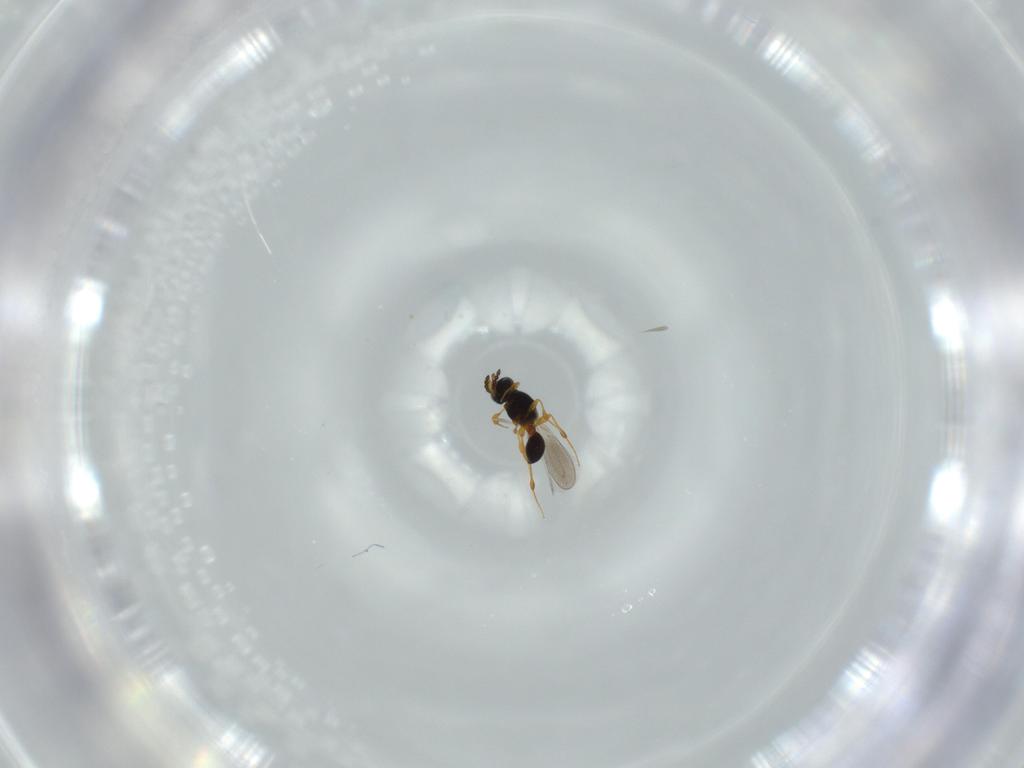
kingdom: Animalia
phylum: Arthropoda
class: Insecta
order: Hymenoptera
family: Platygastridae
